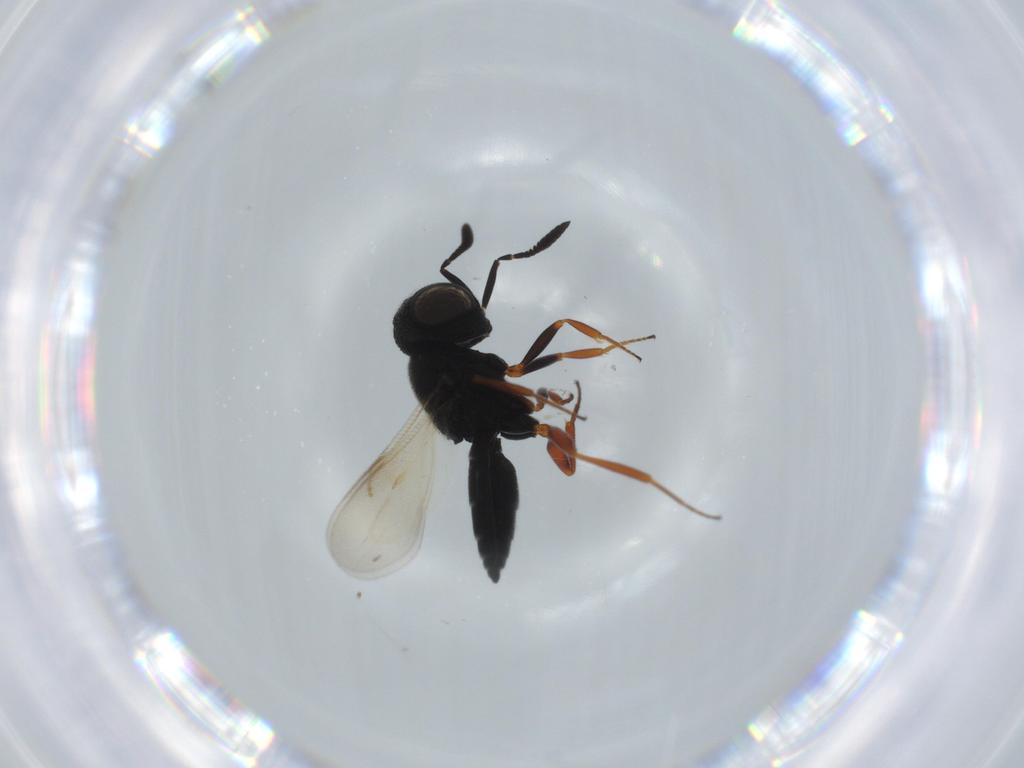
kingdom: Animalia
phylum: Arthropoda
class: Insecta
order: Hymenoptera
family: Scelionidae
